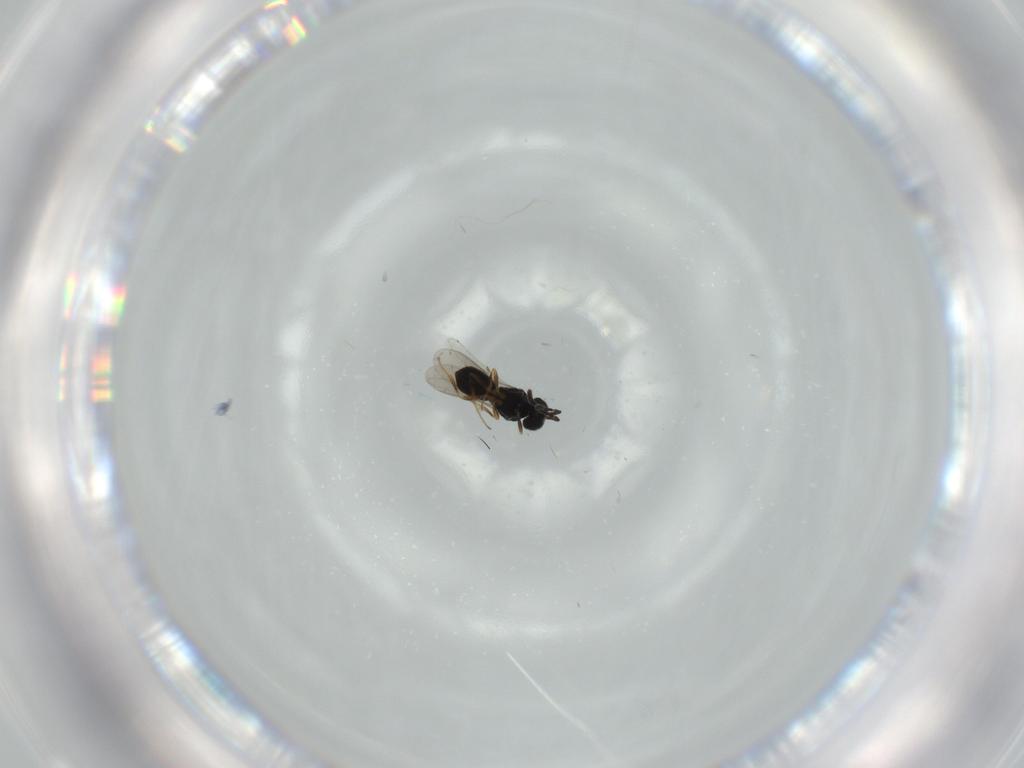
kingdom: Animalia
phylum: Arthropoda
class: Insecta
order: Hymenoptera
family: Scelionidae
